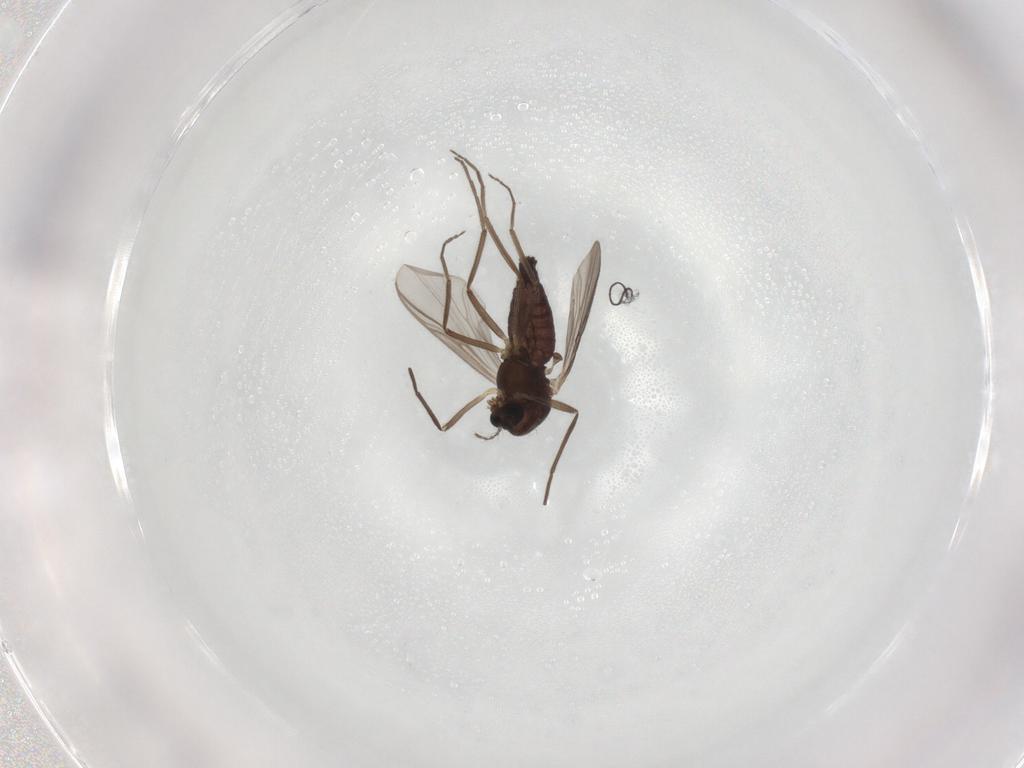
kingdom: Animalia
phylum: Arthropoda
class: Insecta
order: Diptera
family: Chironomidae
